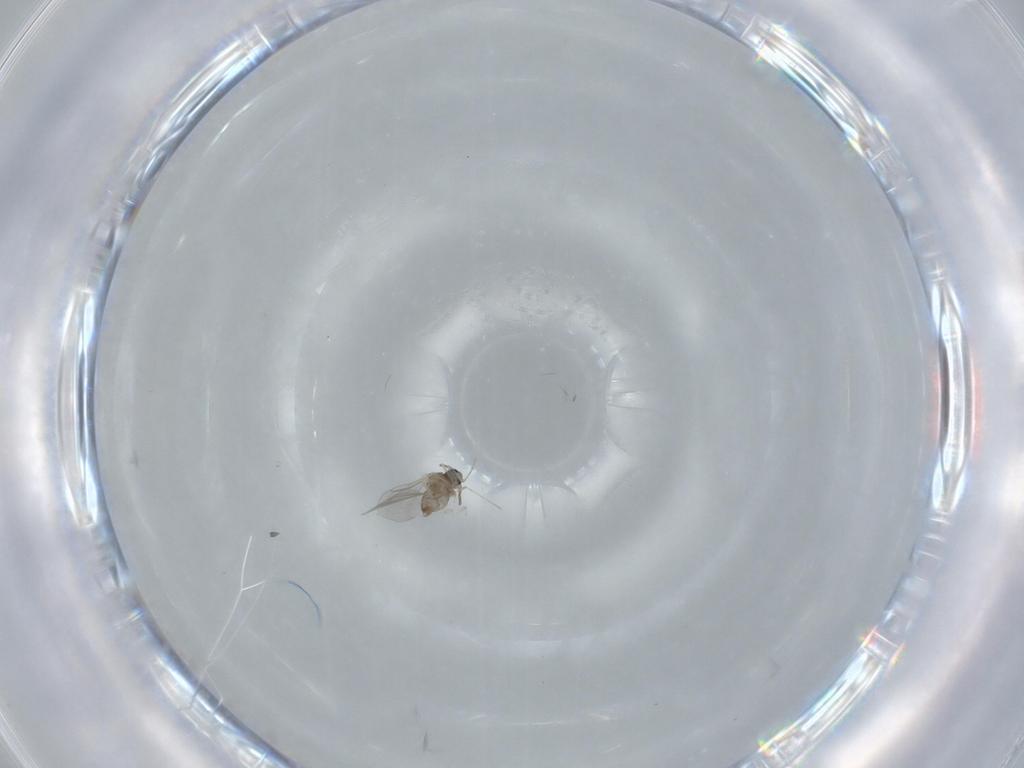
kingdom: Animalia
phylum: Arthropoda
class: Insecta
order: Diptera
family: Cecidomyiidae
